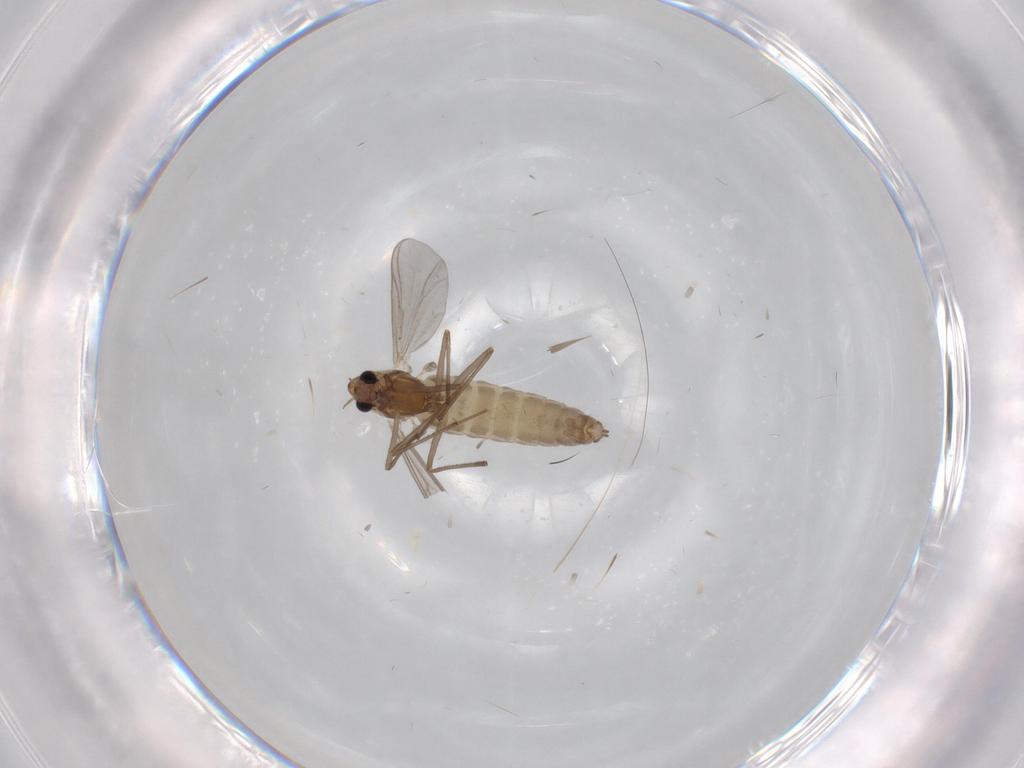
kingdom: Animalia
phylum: Arthropoda
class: Insecta
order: Diptera
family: Chironomidae
